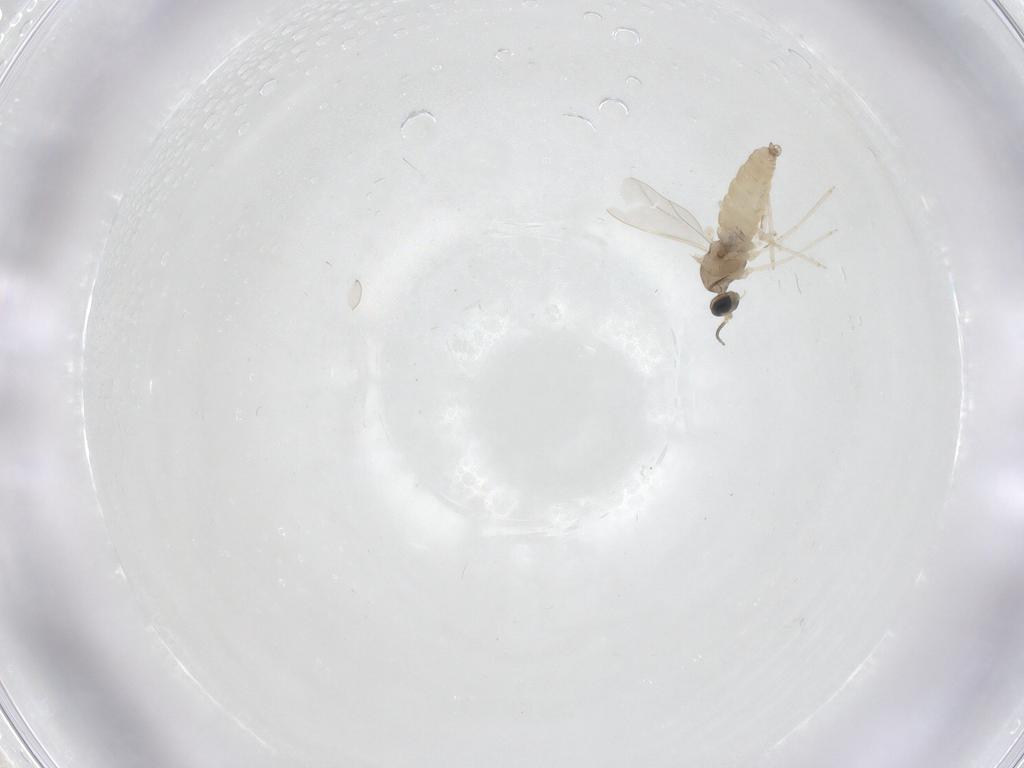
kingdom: Animalia
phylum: Arthropoda
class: Insecta
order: Diptera
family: Cecidomyiidae
